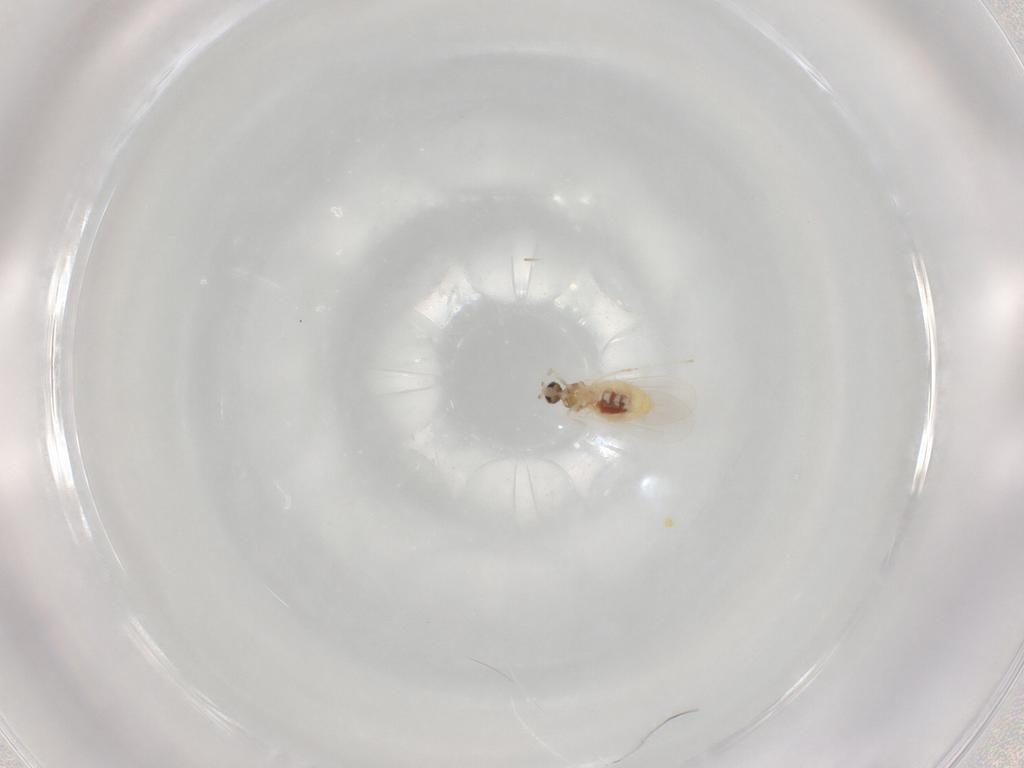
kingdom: Animalia
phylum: Arthropoda
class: Insecta
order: Diptera
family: Cecidomyiidae
